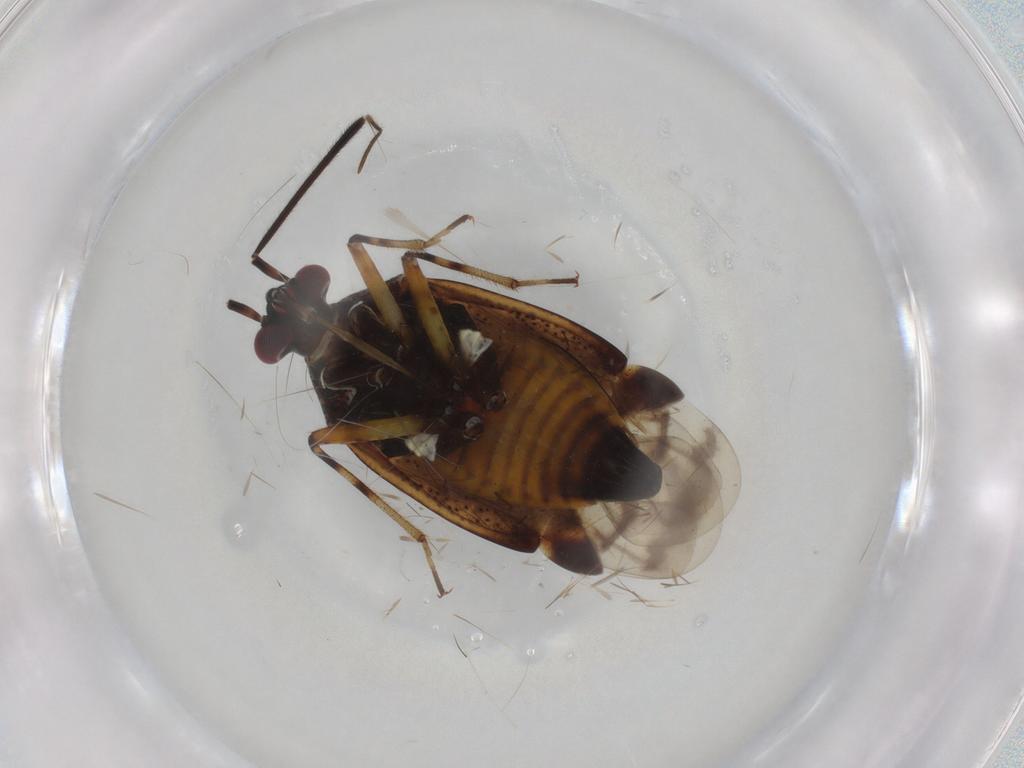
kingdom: Animalia
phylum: Arthropoda
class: Insecta
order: Hemiptera
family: Miridae
